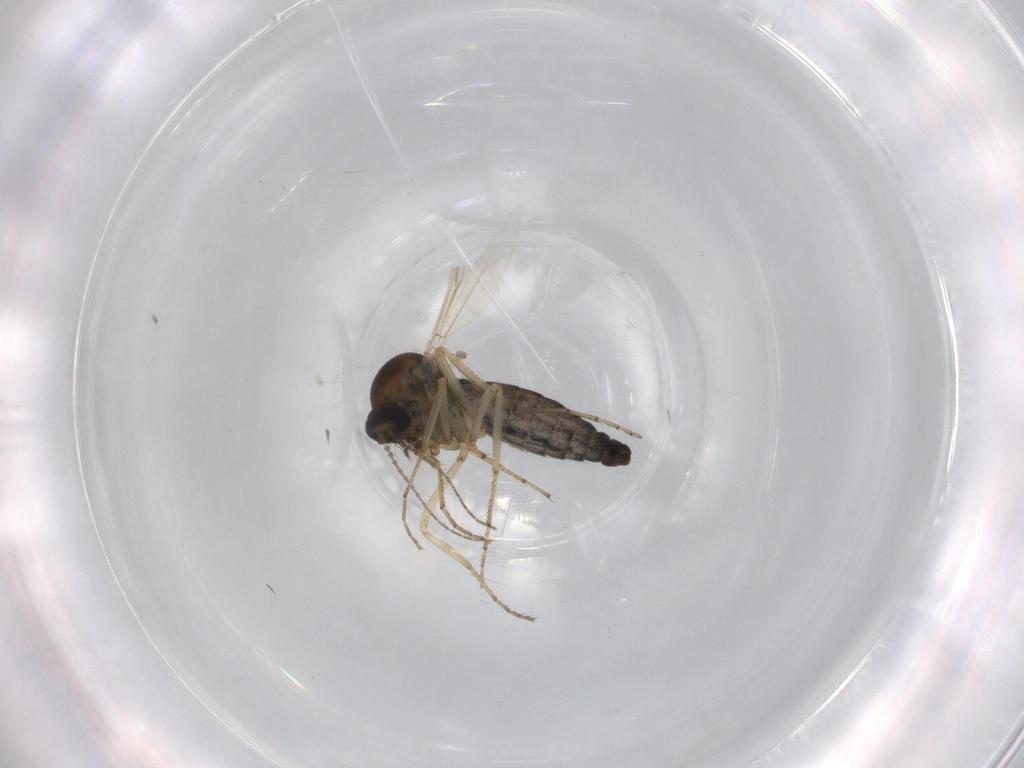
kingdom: Animalia
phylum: Arthropoda
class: Insecta
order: Diptera
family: Ceratopogonidae
